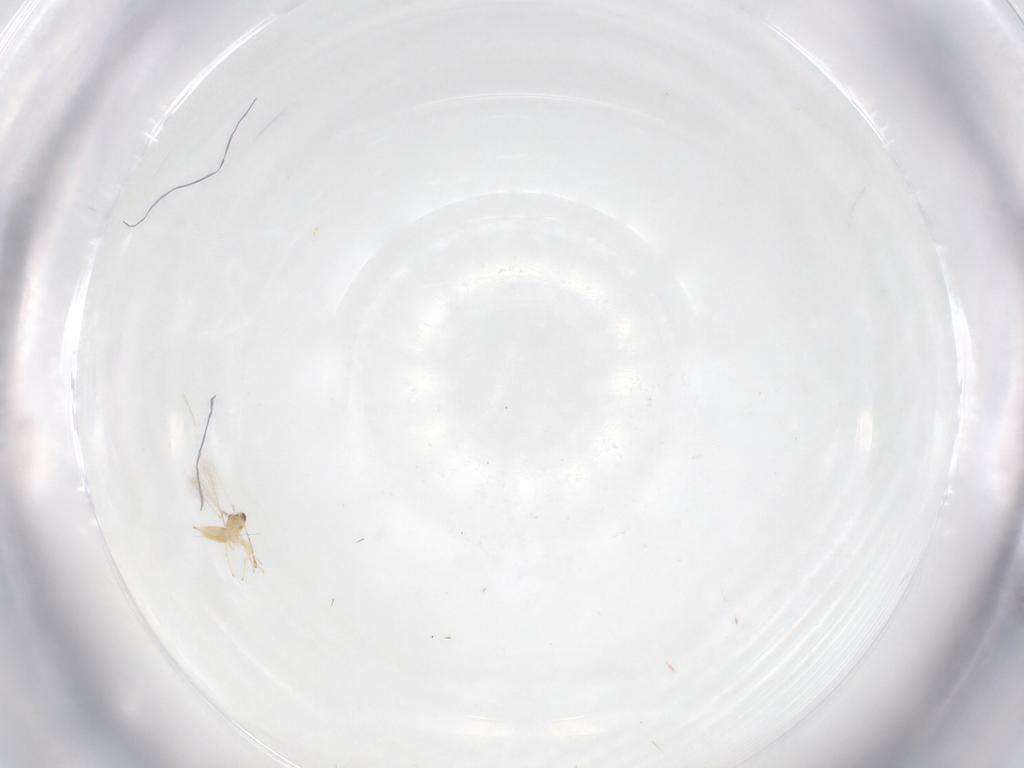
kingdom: Animalia
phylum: Arthropoda
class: Insecta
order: Hymenoptera
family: Mymaridae
